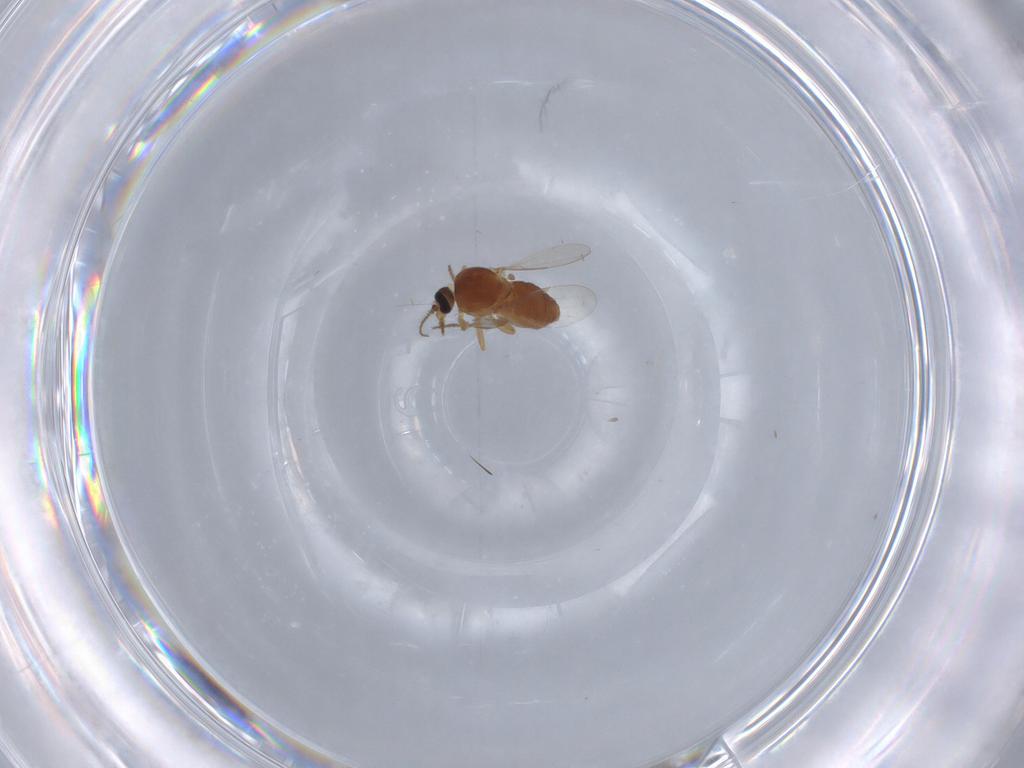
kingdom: Animalia
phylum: Arthropoda
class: Insecta
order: Diptera
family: Ceratopogonidae
